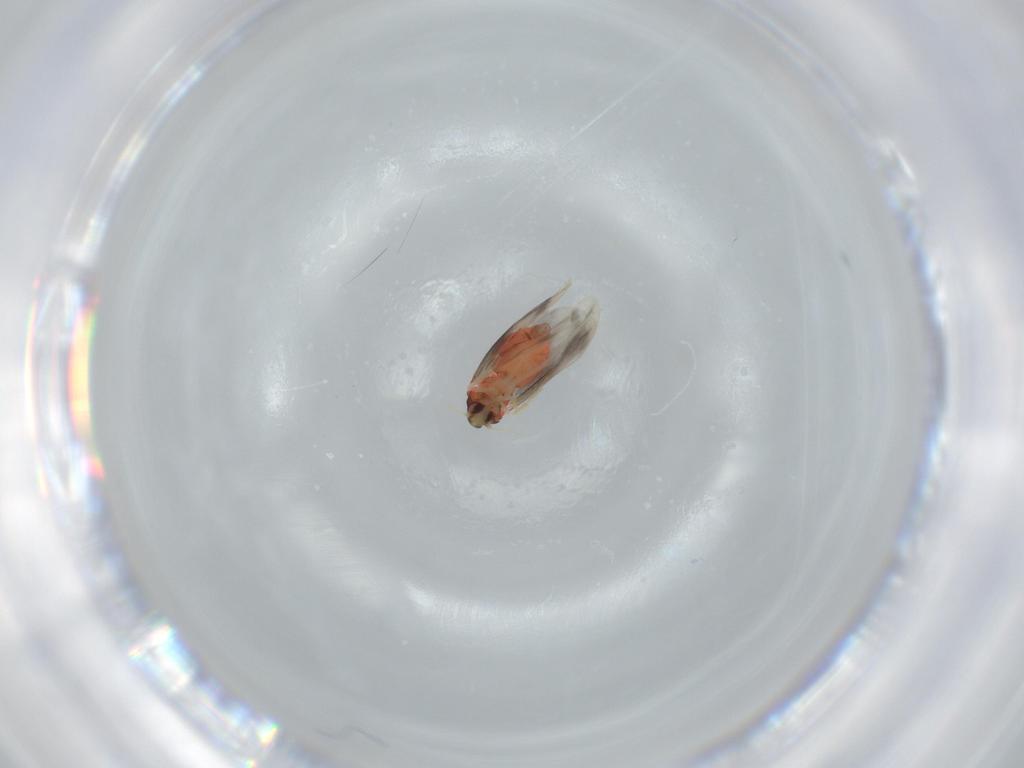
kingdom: Animalia
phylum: Arthropoda
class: Insecta
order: Hemiptera
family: Aleyrodidae
